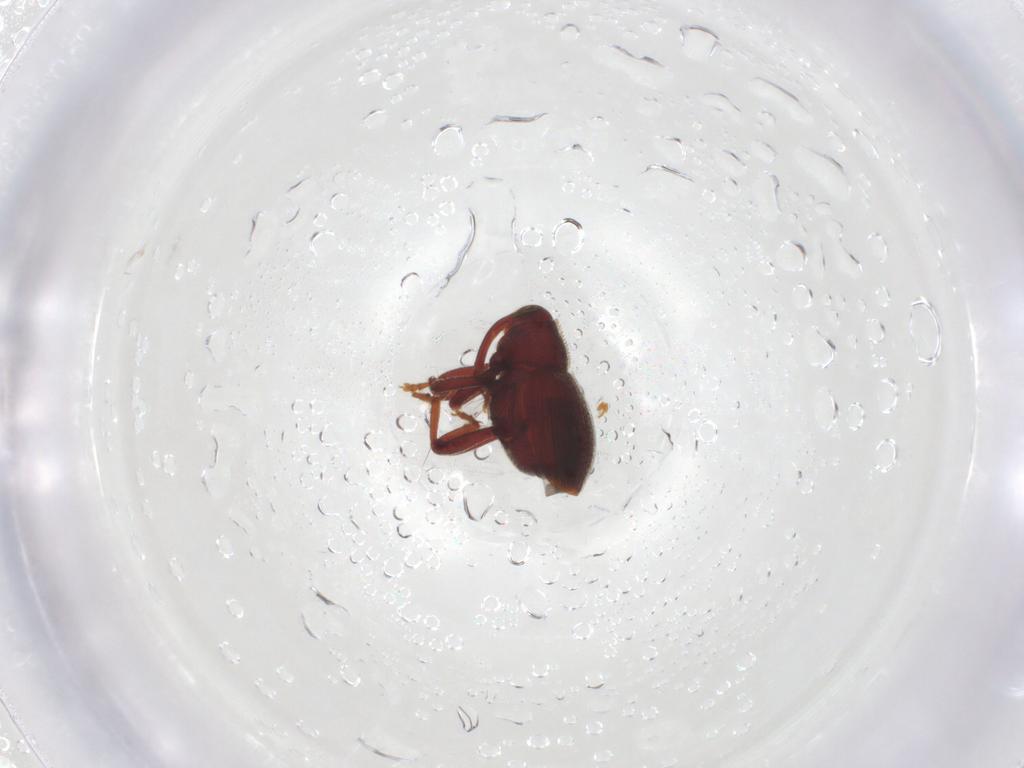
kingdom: Animalia
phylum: Arthropoda
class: Insecta
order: Coleoptera
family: Curculionidae
